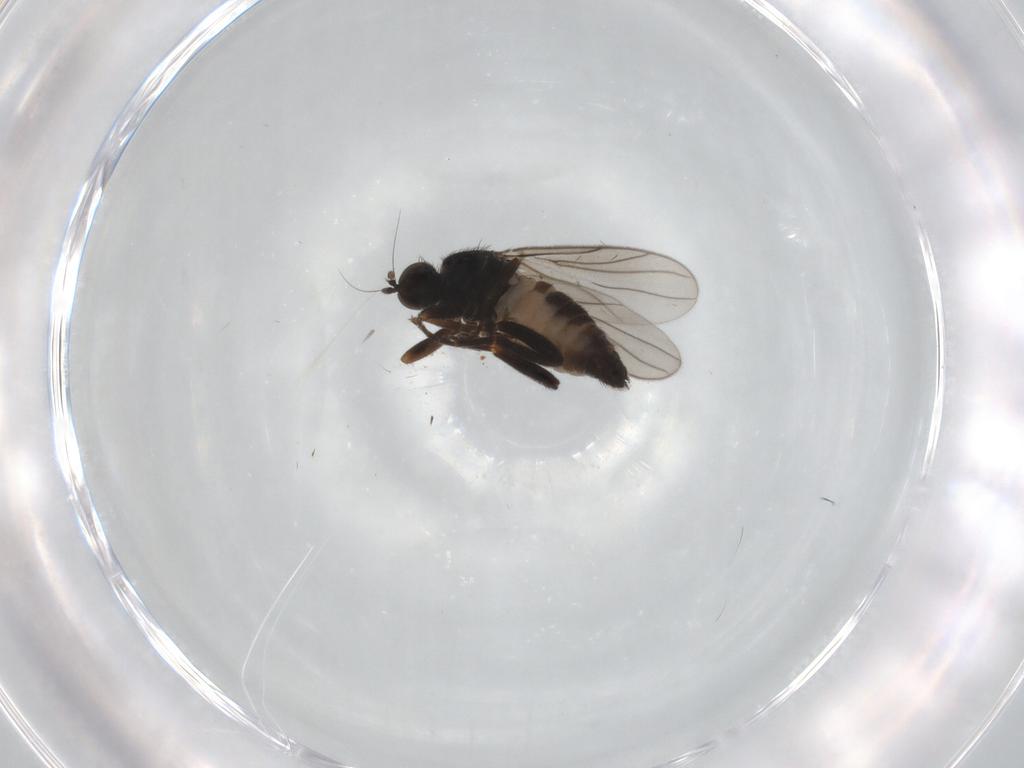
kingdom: Animalia
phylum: Arthropoda
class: Insecta
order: Diptera
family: Hybotidae
